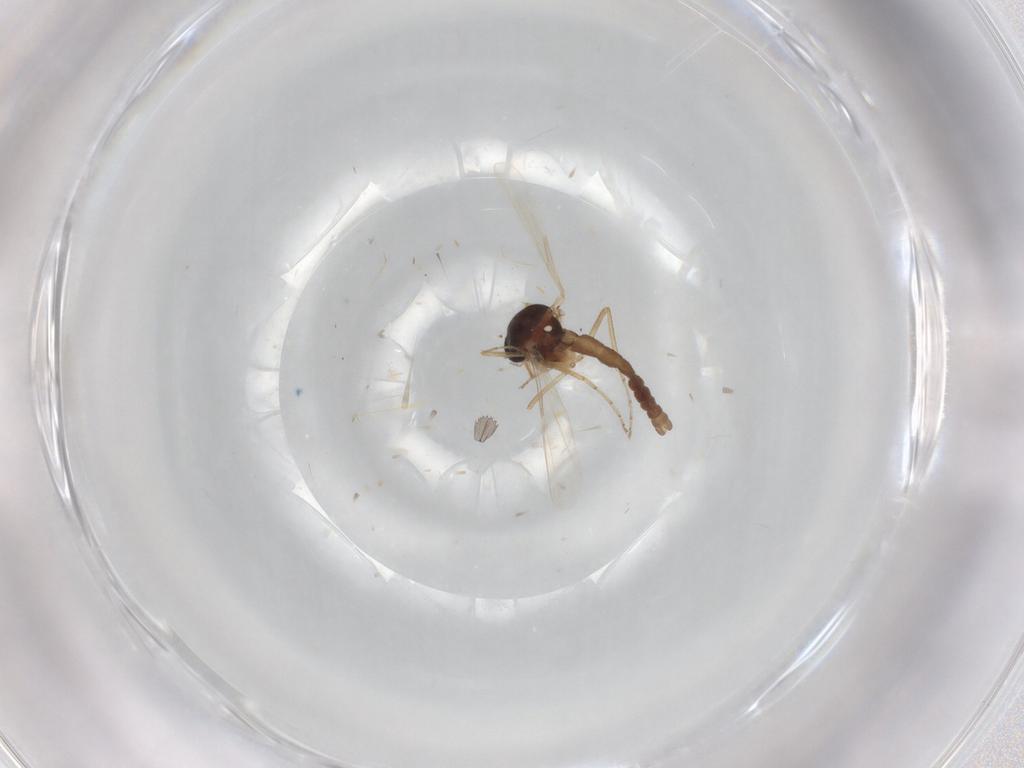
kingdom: Animalia
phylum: Arthropoda
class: Insecta
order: Diptera
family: Ceratopogonidae
